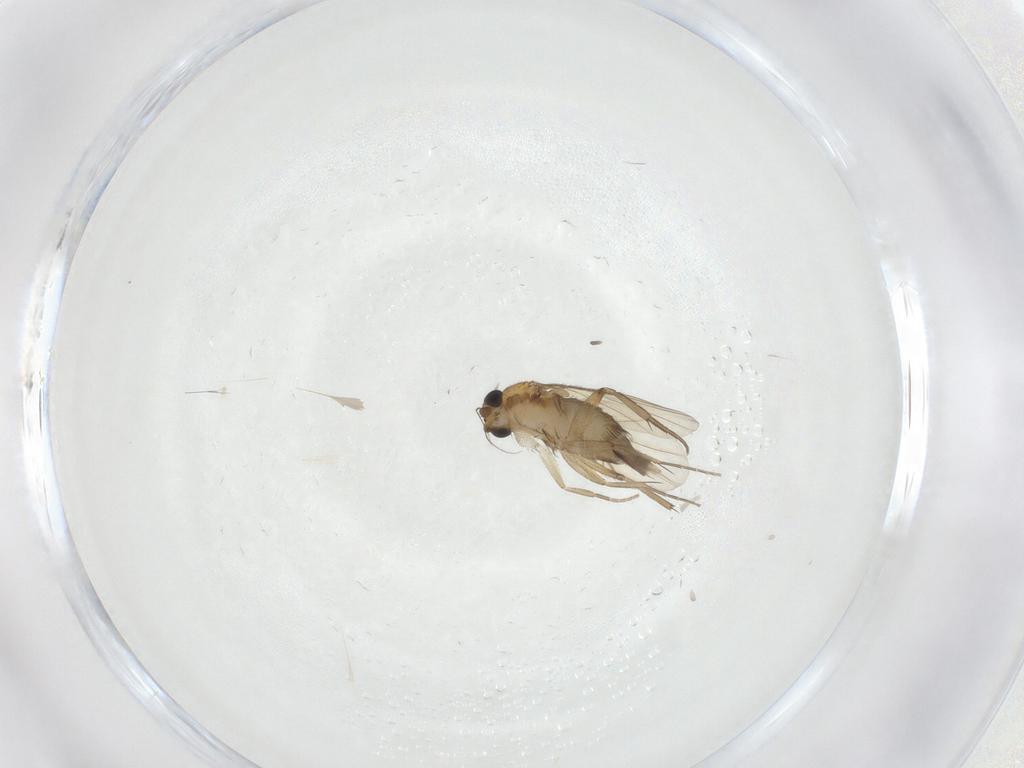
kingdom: Animalia
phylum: Arthropoda
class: Insecta
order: Diptera
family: Phoridae
